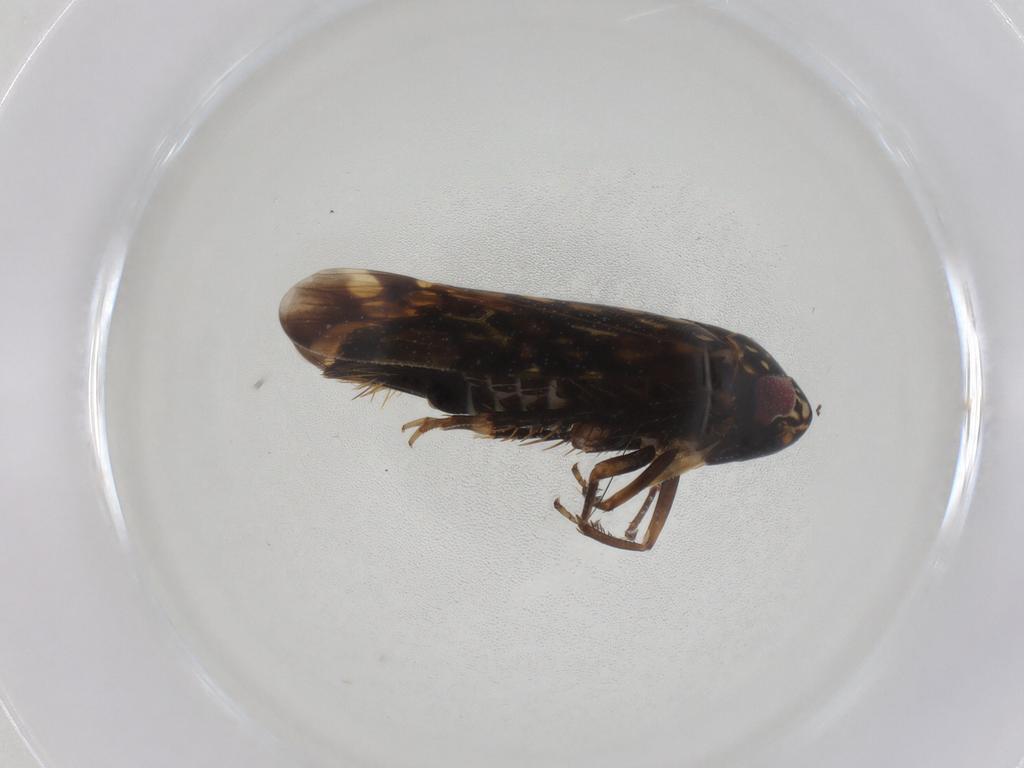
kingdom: Animalia
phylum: Arthropoda
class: Insecta
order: Hemiptera
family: Cicadellidae
